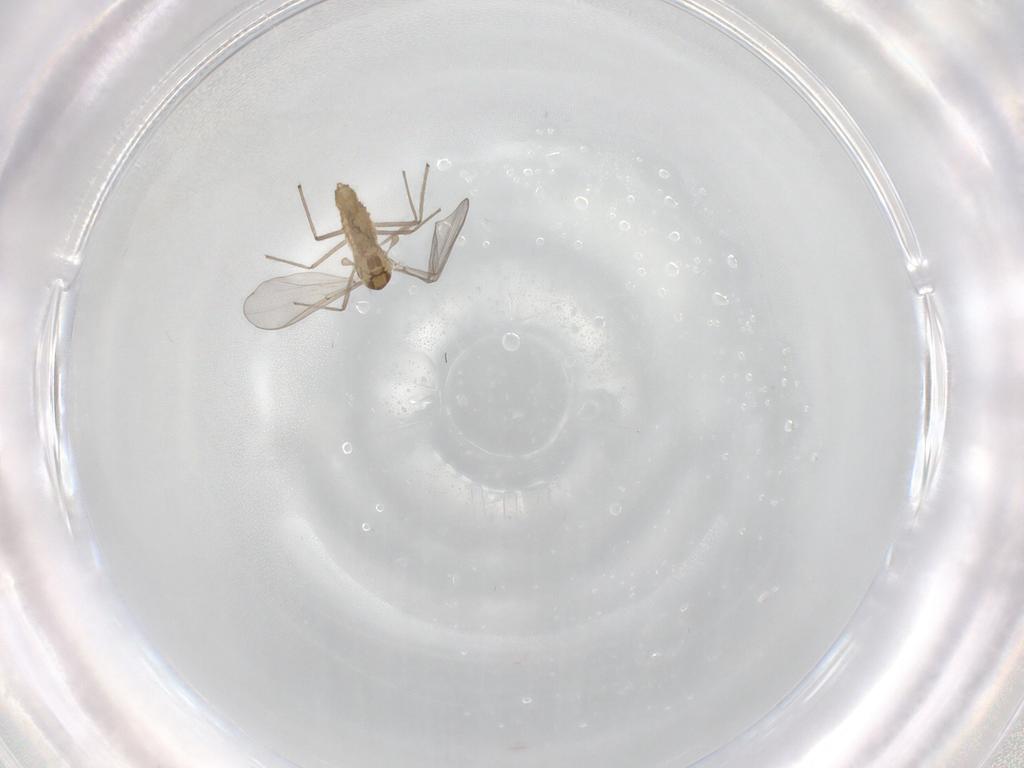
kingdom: Animalia
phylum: Arthropoda
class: Insecta
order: Diptera
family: Chironomidae
